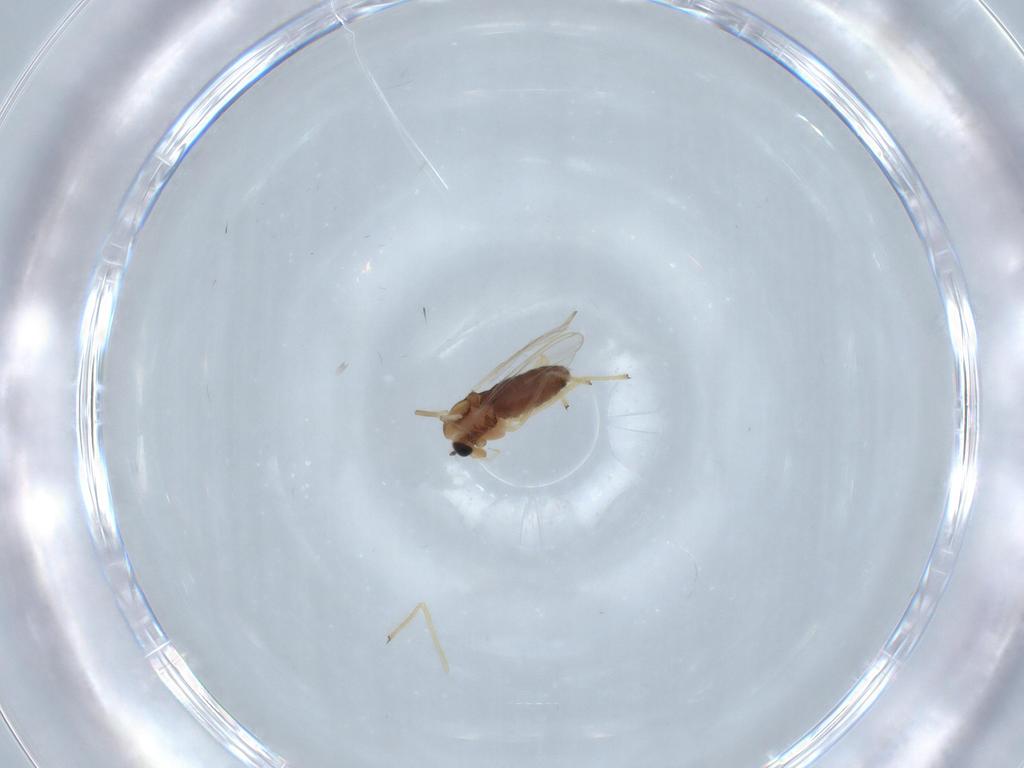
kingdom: Animalia
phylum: Arthropoda
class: Insecta
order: Diptera
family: Chironomidae
